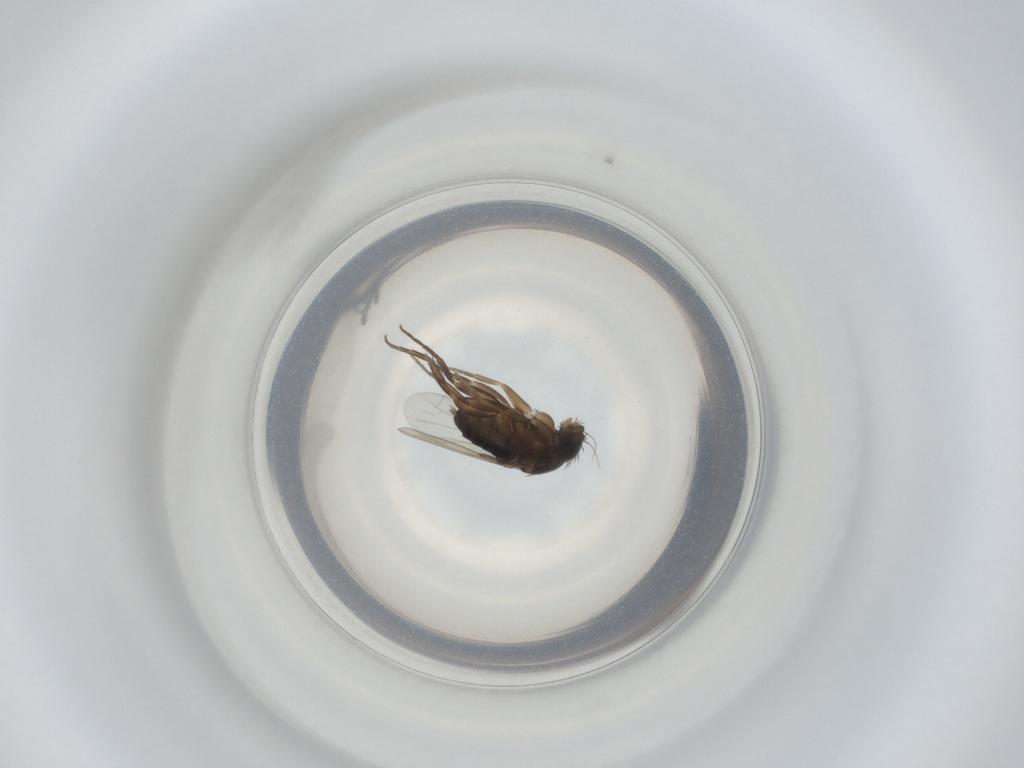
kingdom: Animalia
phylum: Arthropoda
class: Insecta
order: Diptera
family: Phoridae
